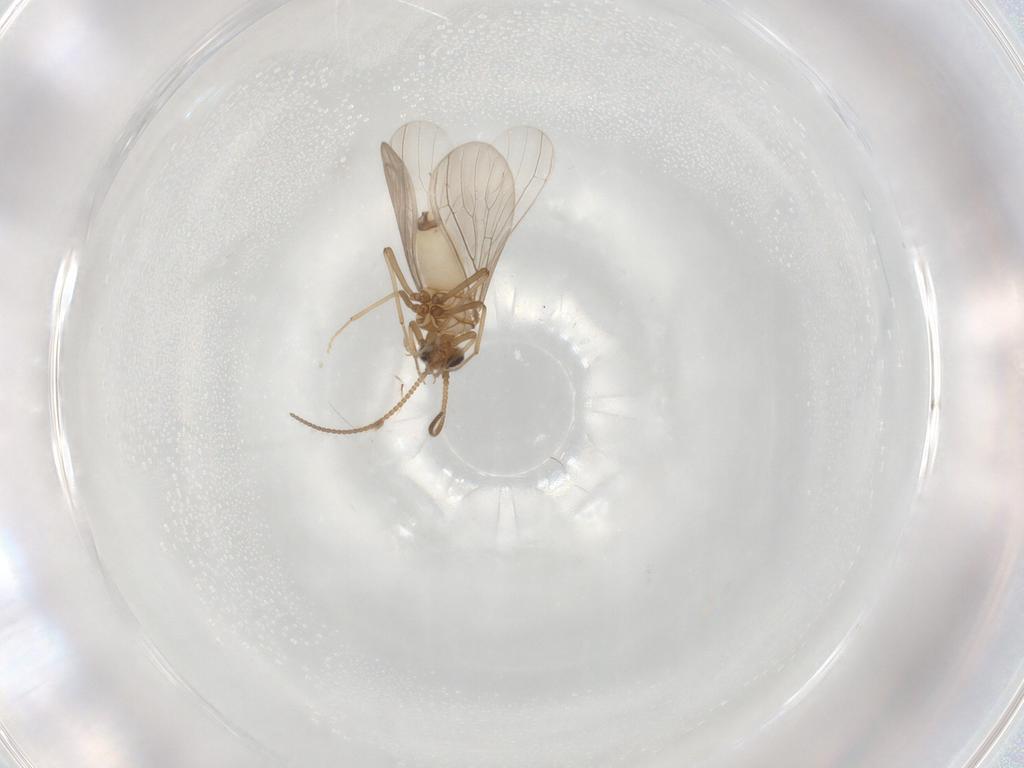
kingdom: Animalia
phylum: Arthropoda
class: Insecta
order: Neuroptera
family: Coniopterygidae
